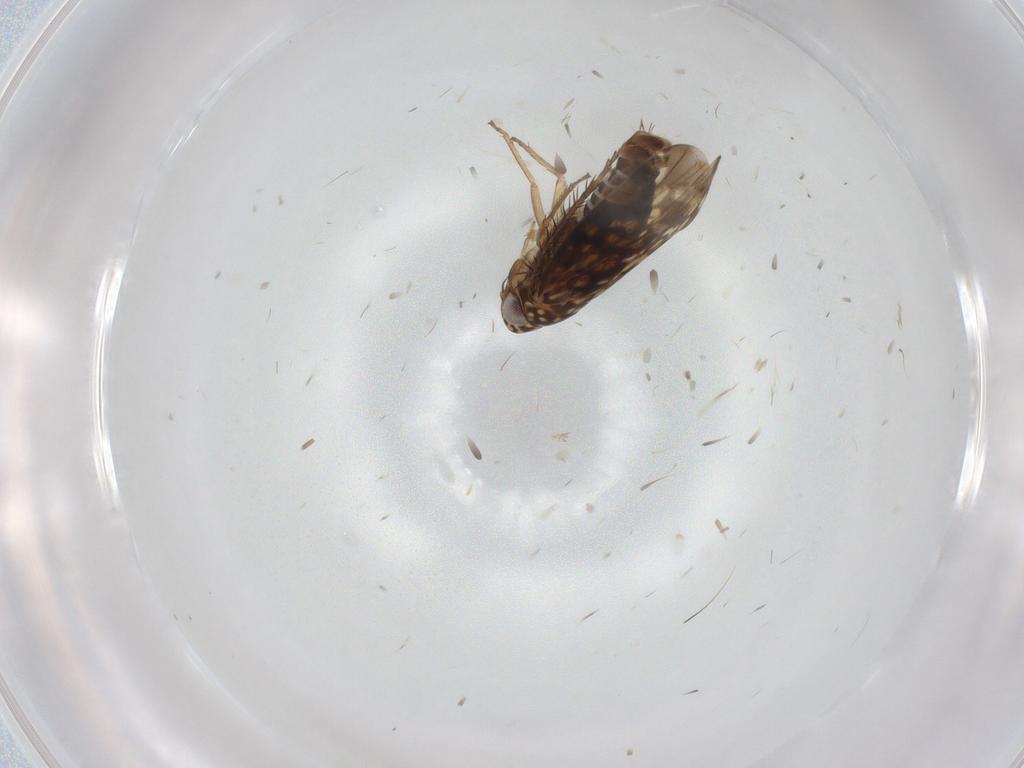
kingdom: Animalia
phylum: Arthropoda
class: Insecta
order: Hemiptera
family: Cicadellidae
